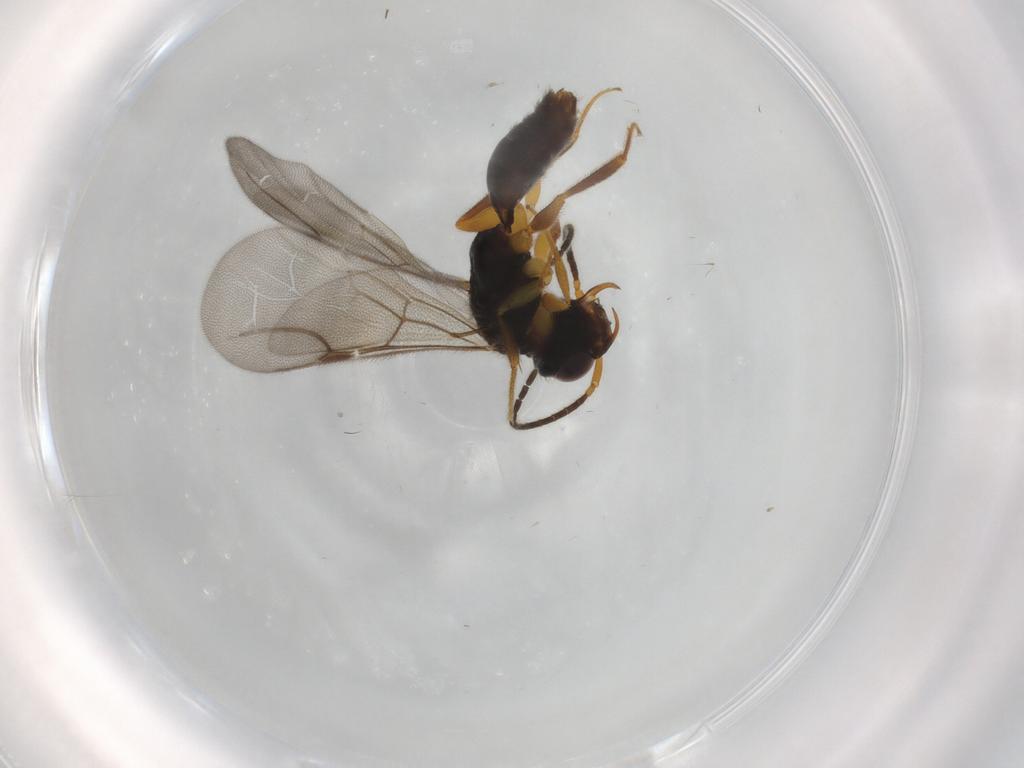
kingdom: Animalia
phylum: Arthropoda
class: Insecta
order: Hymenoptera
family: Bethylidae
